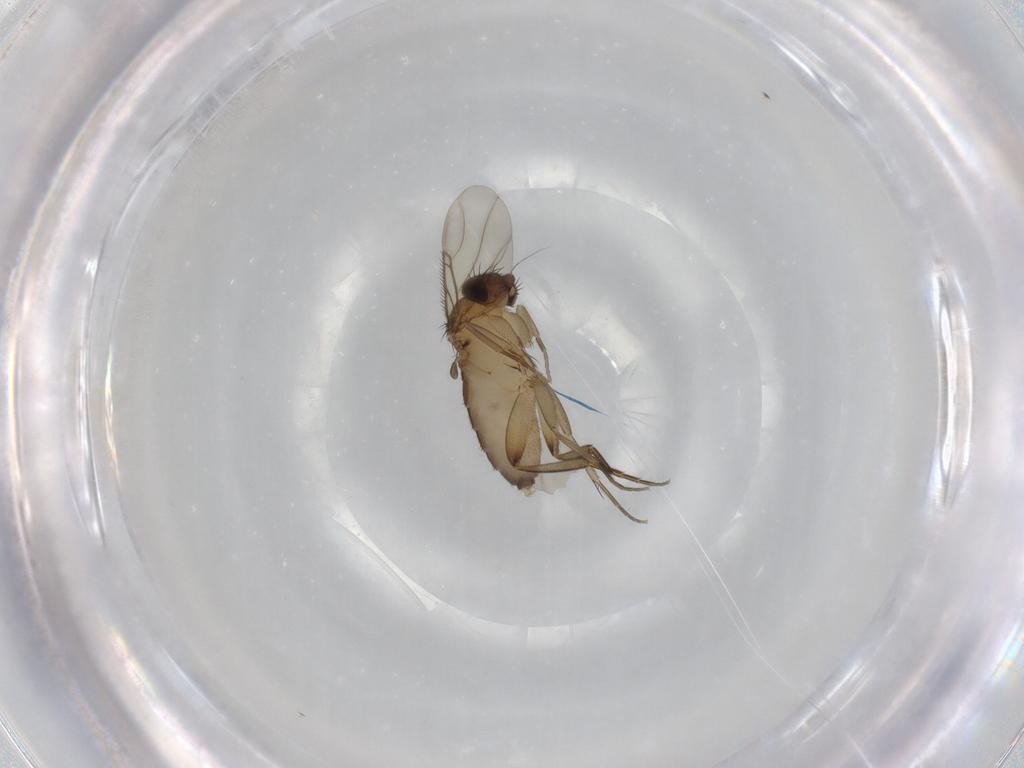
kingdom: Animalia
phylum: Arthropoda
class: Insecta
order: Diptera
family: Phoridae
